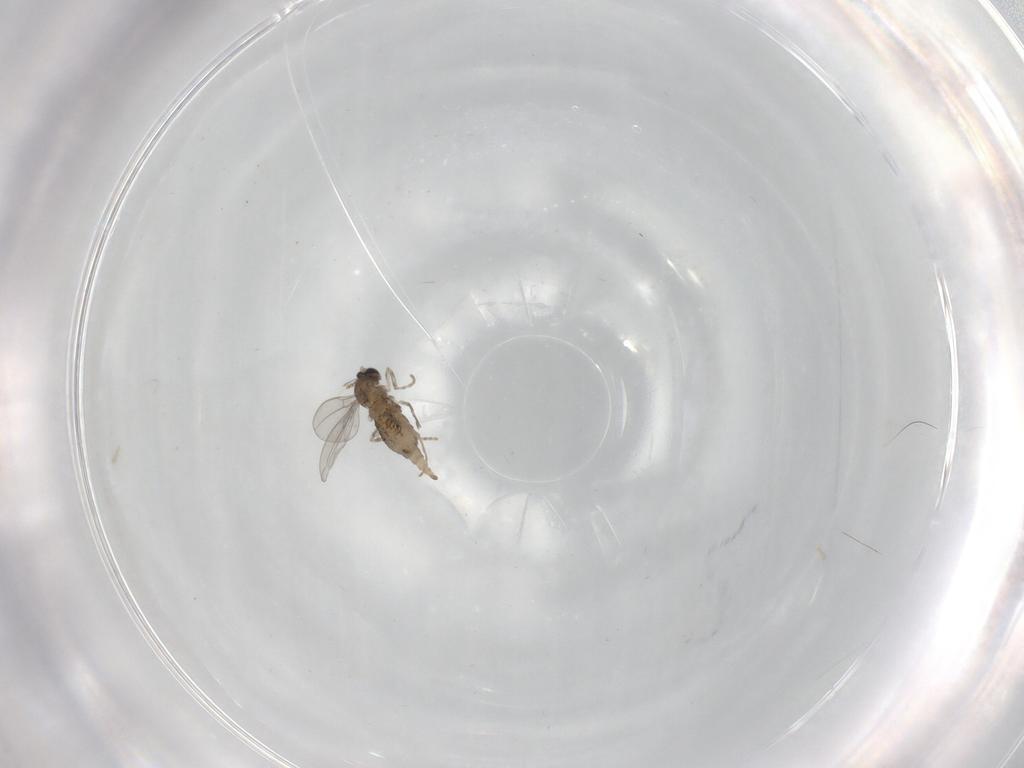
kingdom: Animalia
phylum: Arthropoda
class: Insecta
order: Diptera
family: Cecidomyiidae
